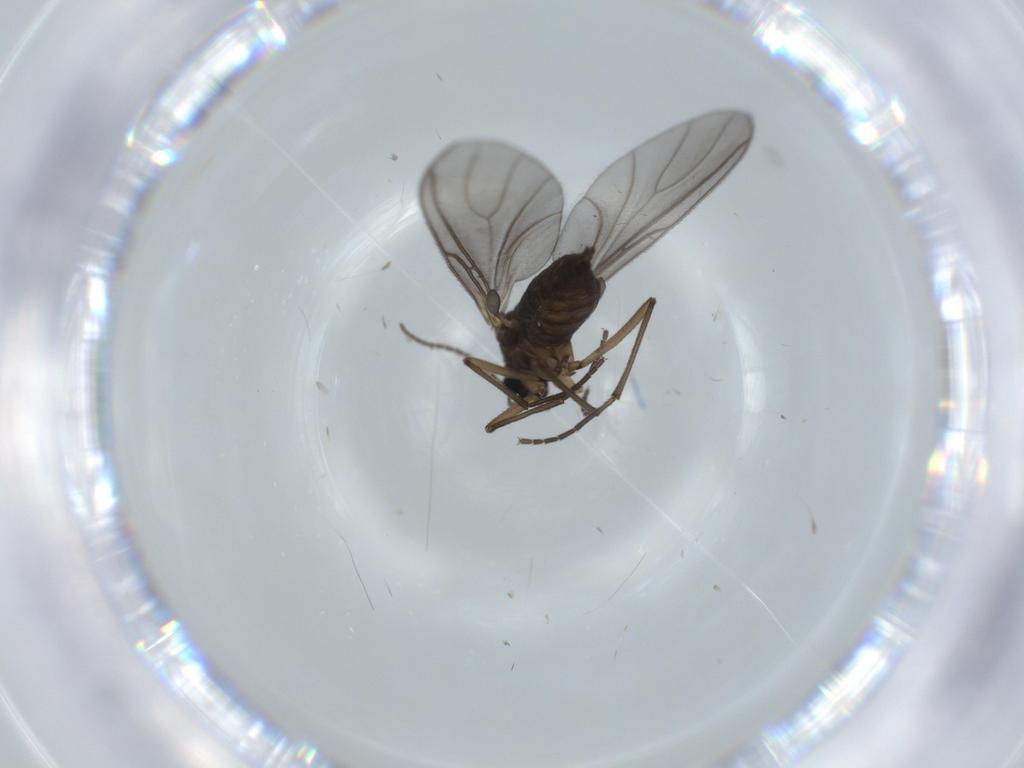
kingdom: Animalia
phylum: Arthropoda
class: Insecta
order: Diptera
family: Sciaridae
